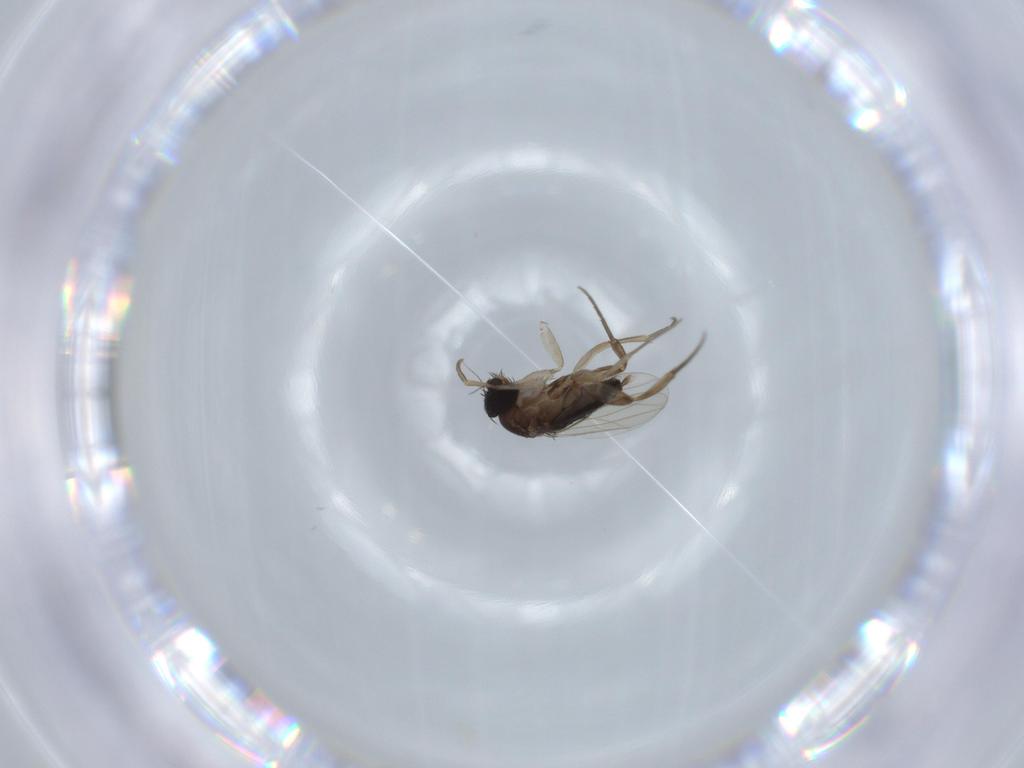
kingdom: Animalia
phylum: Arthropoda
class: Insecta
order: Diptera
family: Phoridae
